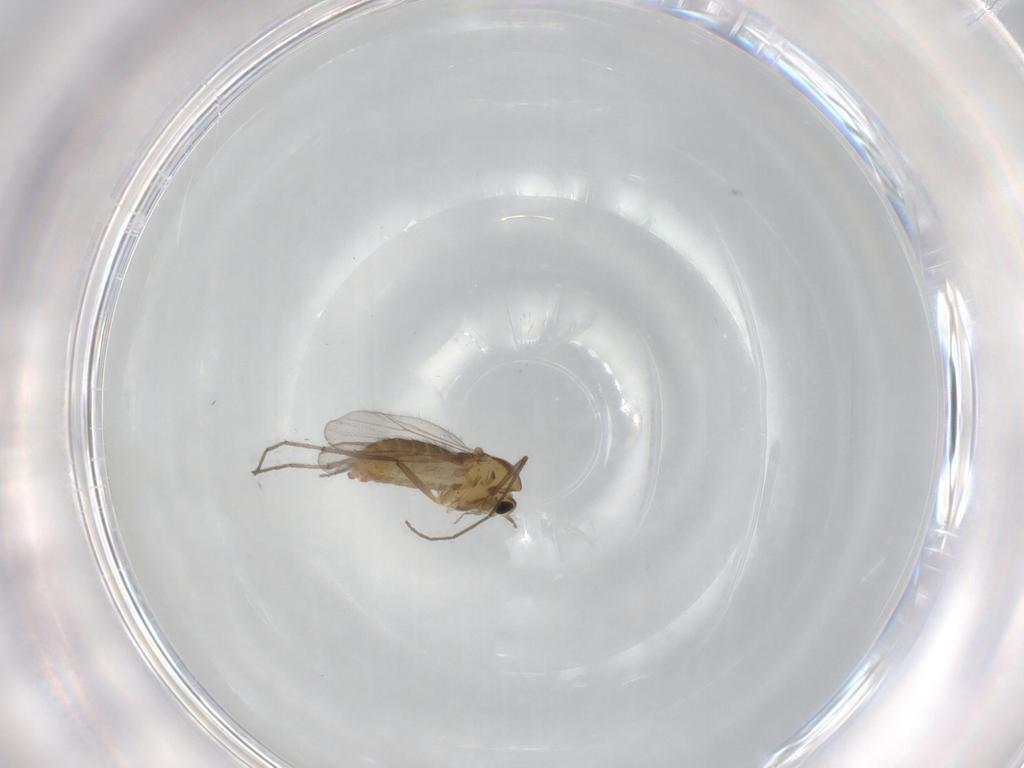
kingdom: Animalia
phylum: Arthropoda
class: Insecta
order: Diptera
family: Chironomidae
